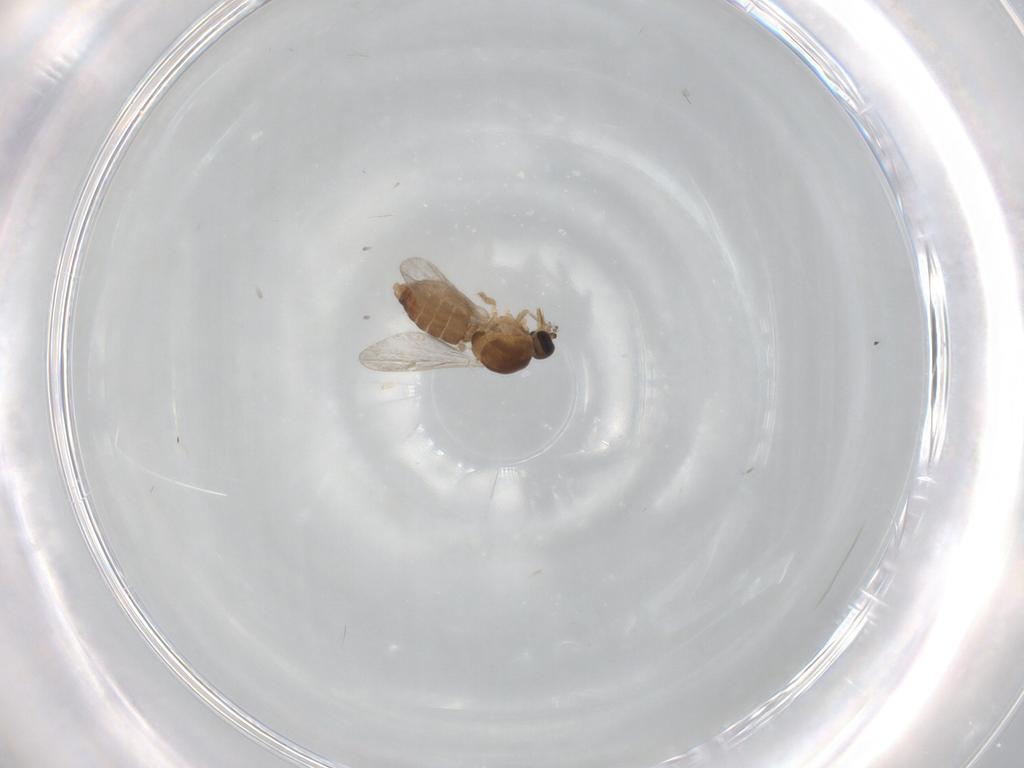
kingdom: Animalia
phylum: Arthropoda
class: Insecta
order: Diptera
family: Ceratopogonidae
